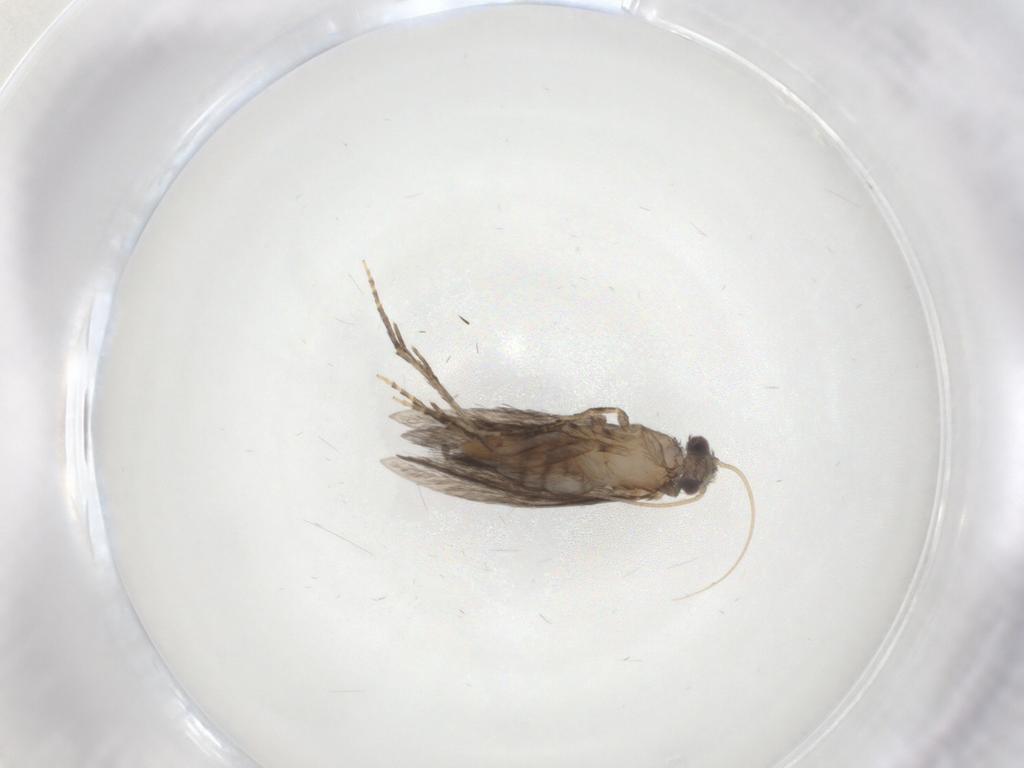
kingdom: Animalia
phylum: Arthropoda
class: Insecta
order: Trichoptera
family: Hydroptilidae
